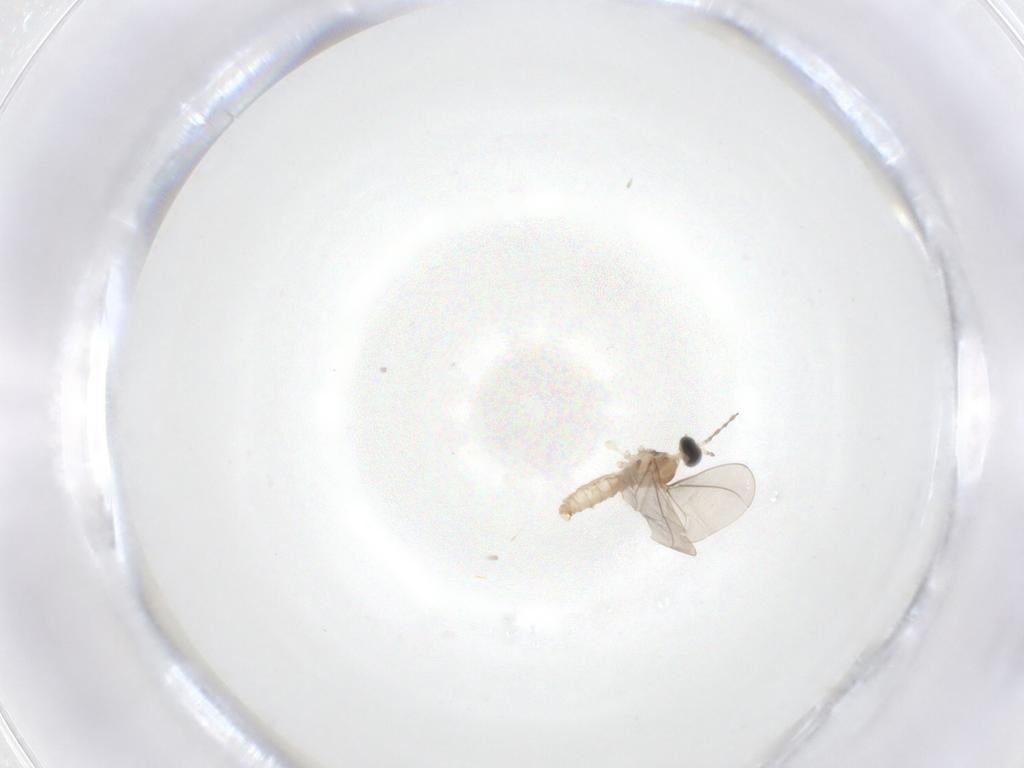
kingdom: Animalia
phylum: Arthropoda
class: Insecta
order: Diptera
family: Cecidomyiidae
